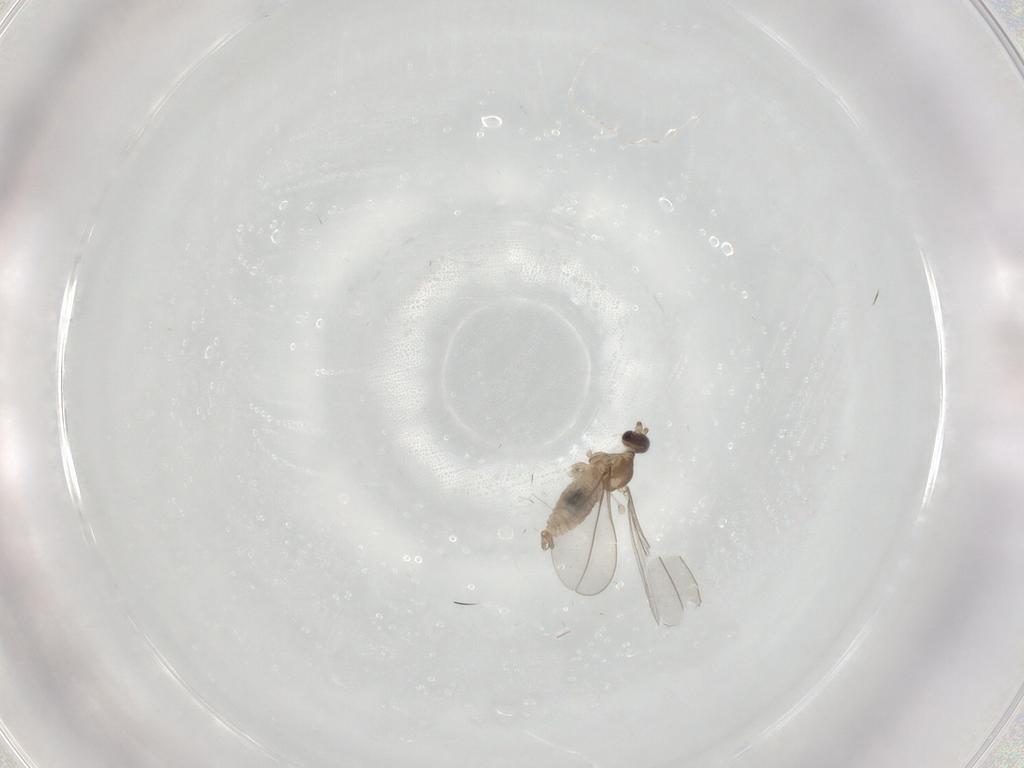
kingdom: Animalia
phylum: Arthropoda
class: Insecta
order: Diptera
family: Cecidomyiidae
